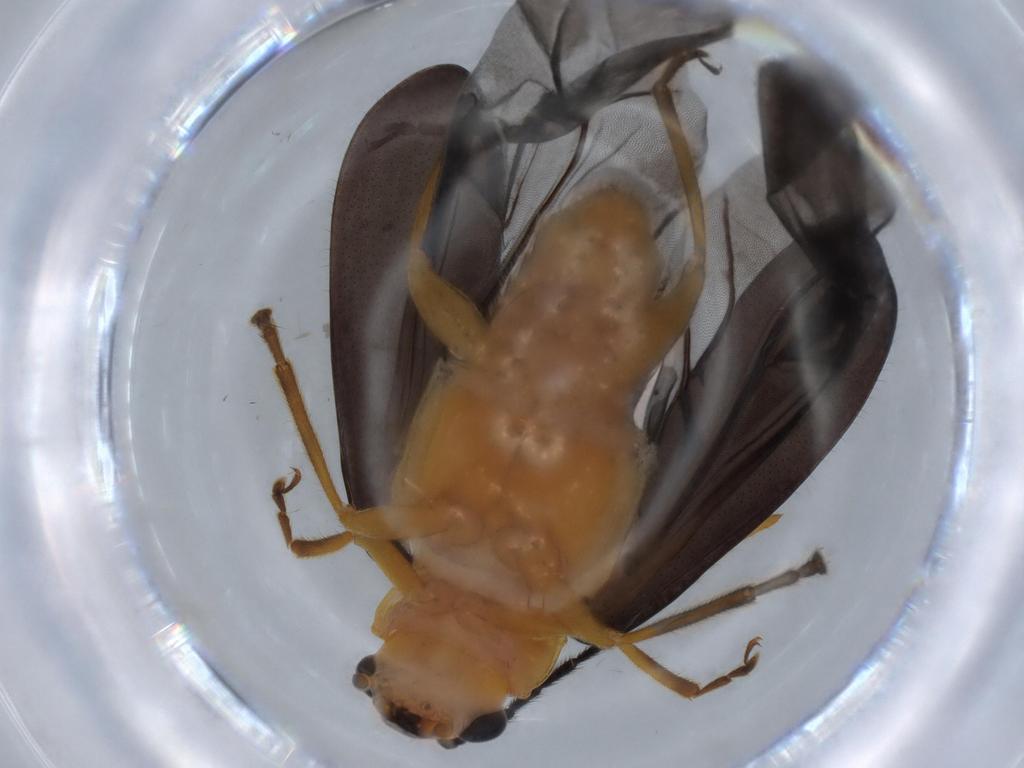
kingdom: Animalia
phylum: Arthropoda
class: Insecta
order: Coleoptera
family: Chrysomelidae
